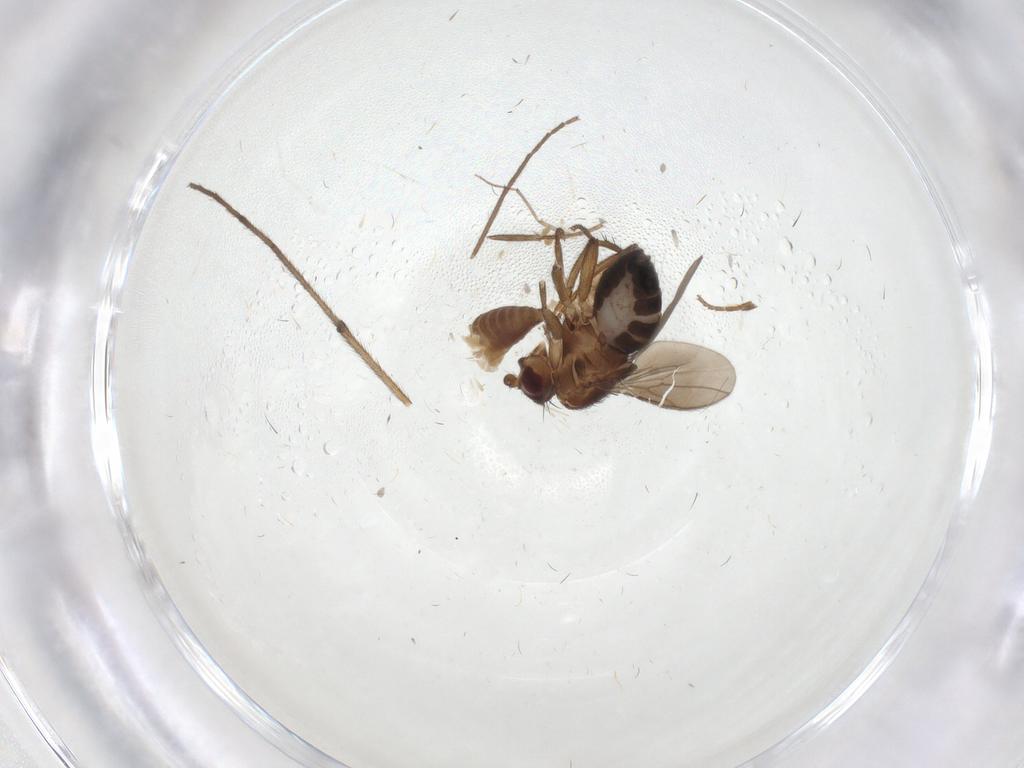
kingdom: Animalia
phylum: Arthropoda
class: Insecta
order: Diptera
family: Sphaeroceridae
